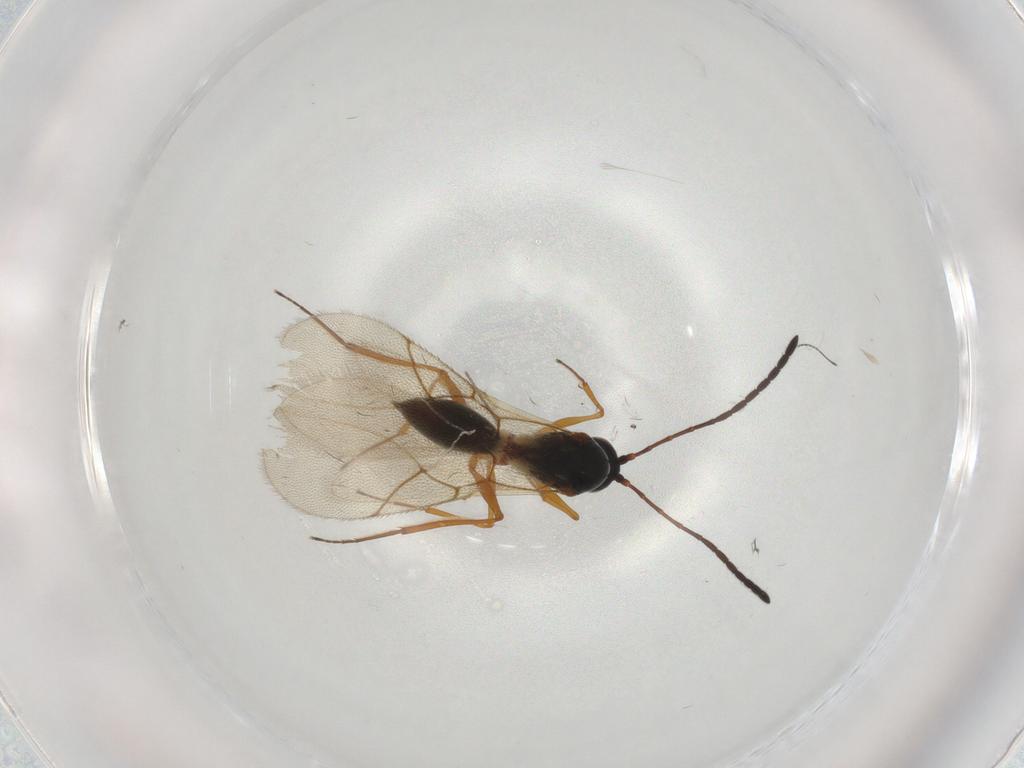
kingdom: Animalia
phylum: Arthropoda
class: Insecta
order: Hymenoptera
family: Figitidae
